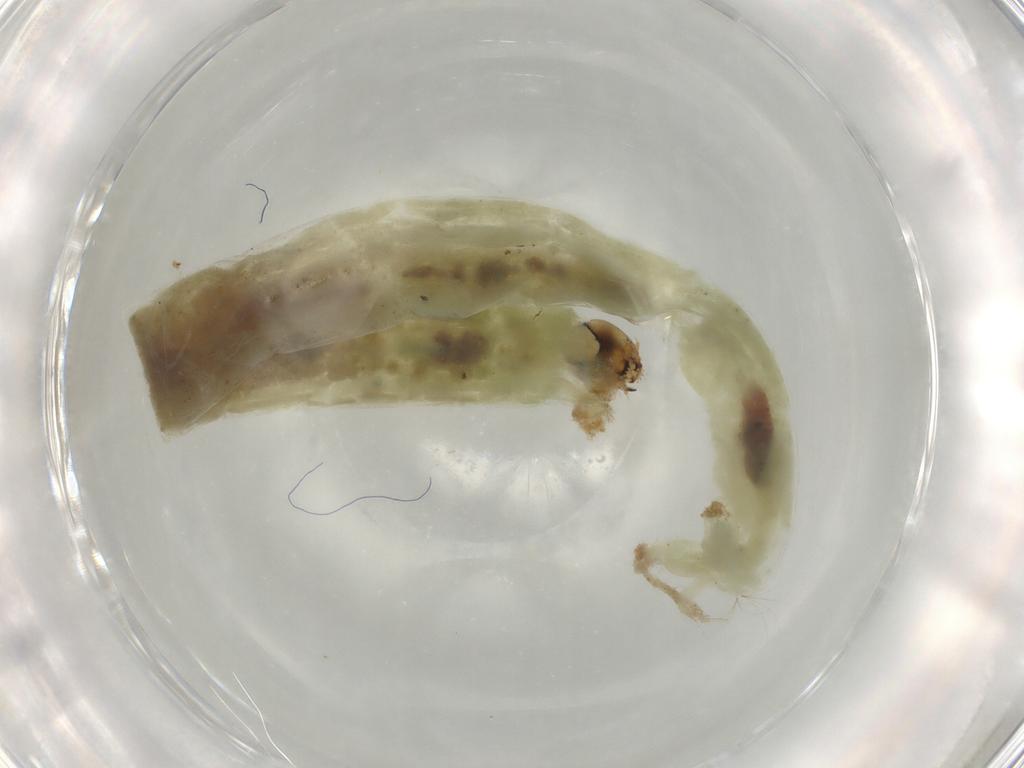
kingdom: Animalia
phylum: Arthropoda
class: Insecta
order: Diptera
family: Chironomidae
